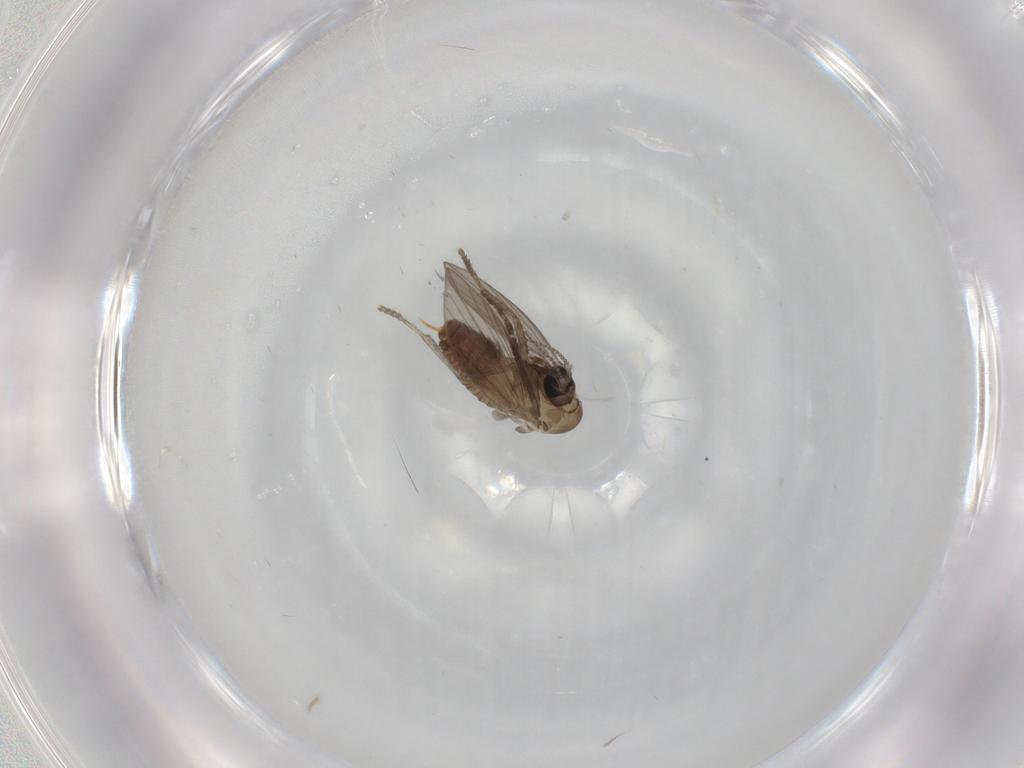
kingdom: Animalia
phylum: Arthropoda
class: Insecta
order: Diptera
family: Psychodidae
